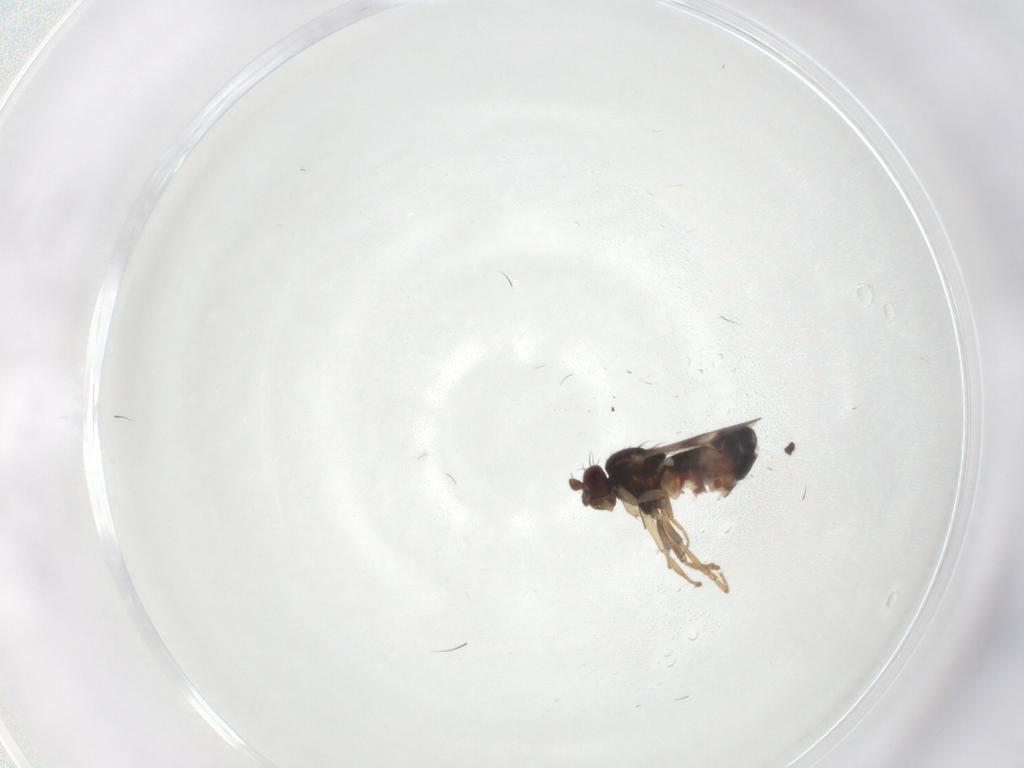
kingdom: Animalia
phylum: Arthropoda
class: Insecta
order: Diptera
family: Sphaeroceridae
